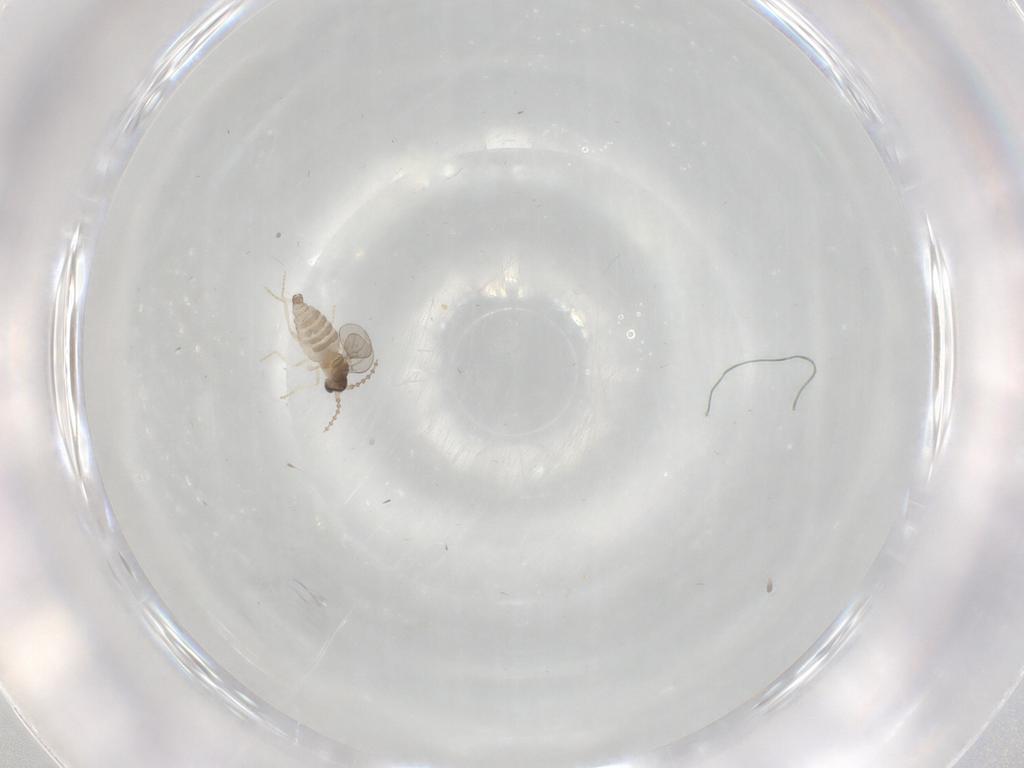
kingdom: Animalia
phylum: Arthropoda
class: Insecta
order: Diptera
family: Cecidomyiidae
